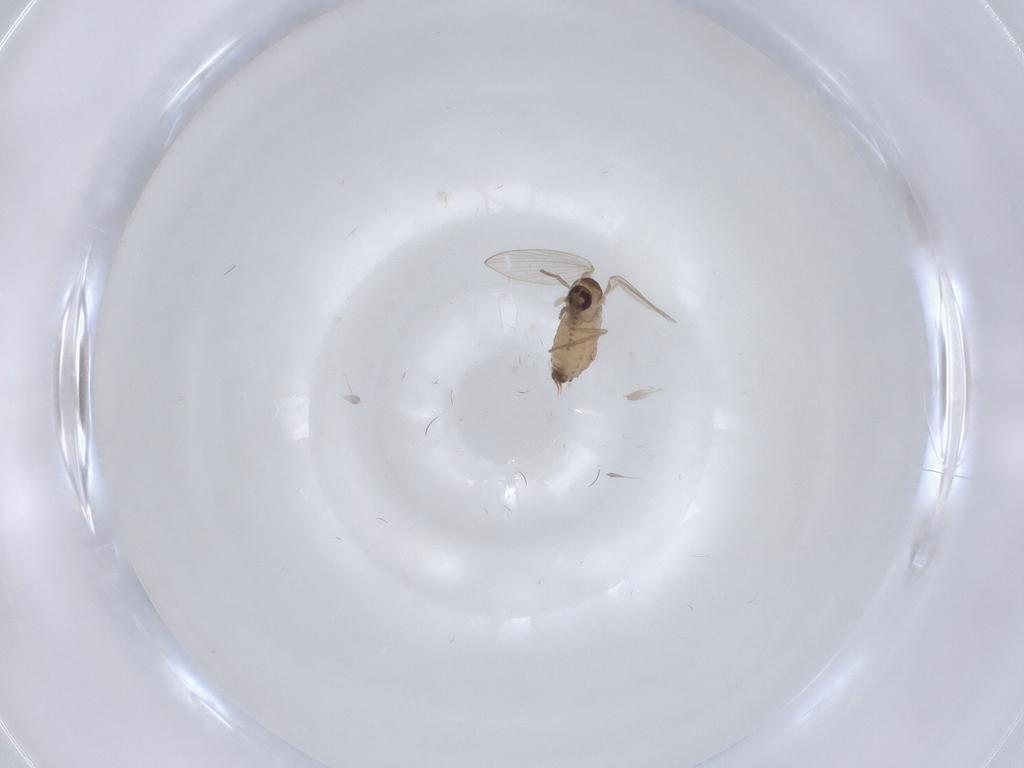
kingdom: Animalia
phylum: Arthropoda
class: Insecta
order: Diptera
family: Psychodidae
